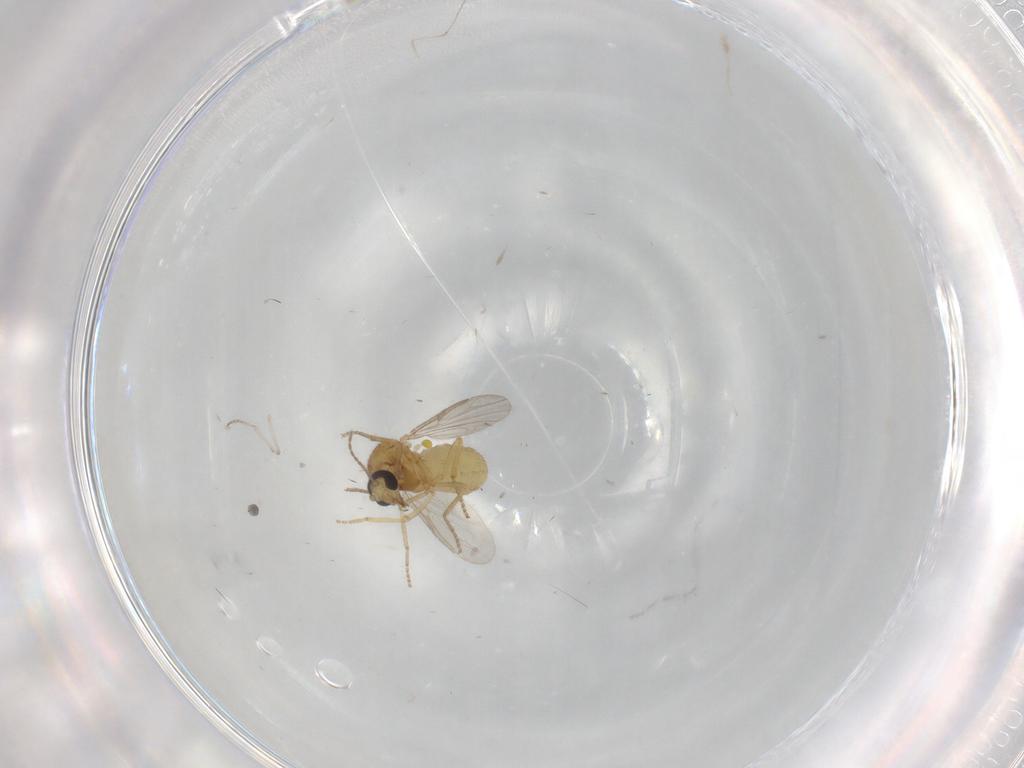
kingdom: Animalia
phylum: Arthropoda
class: Insecta
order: Diptera
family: Ceratopogonidae
